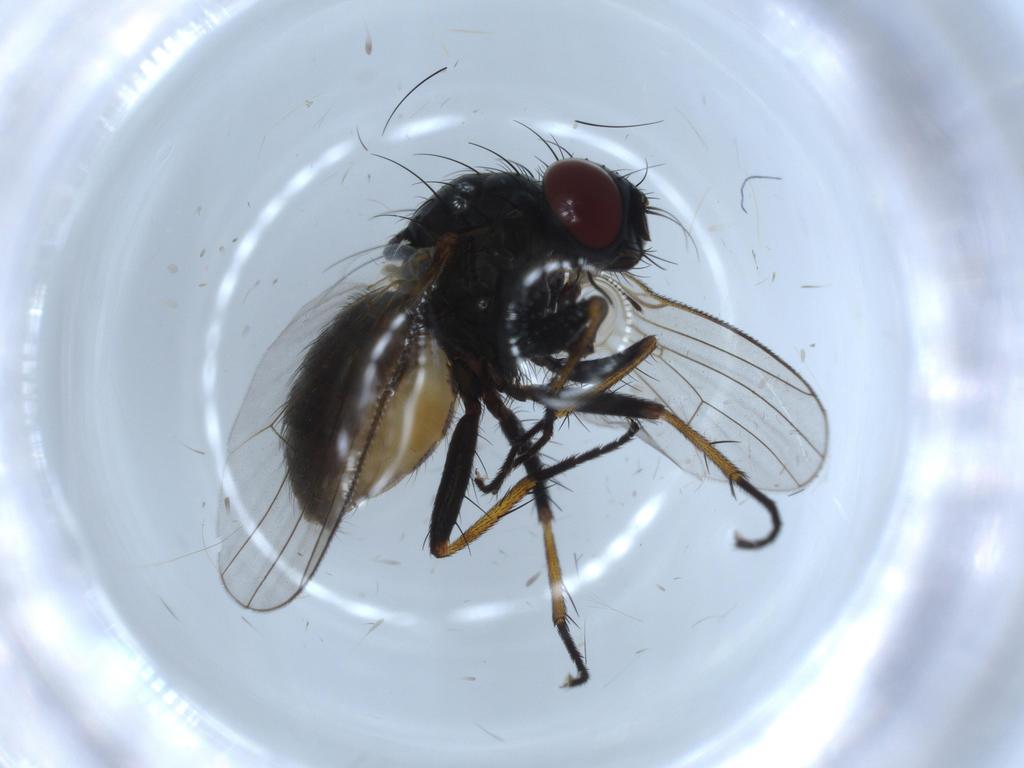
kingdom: Animalia
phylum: Arthropoda
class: Insecta
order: Diptera
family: Muscidae
